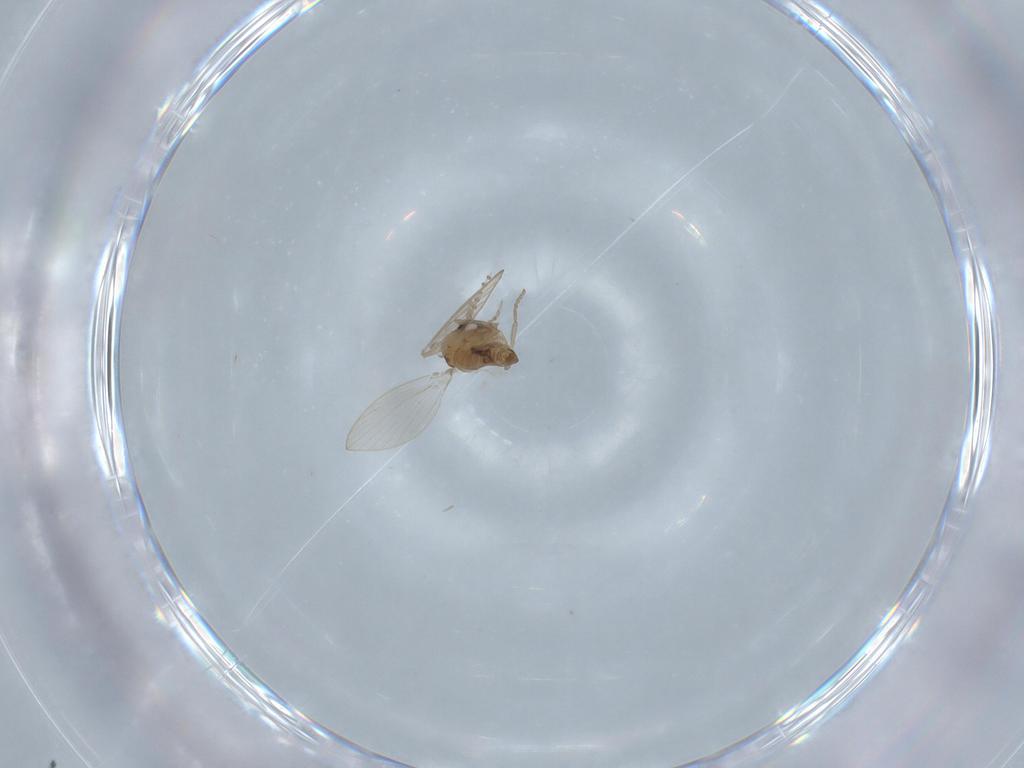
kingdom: Animalia
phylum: Arthropoda
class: Insecta
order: Diptera
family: Psychodidae
